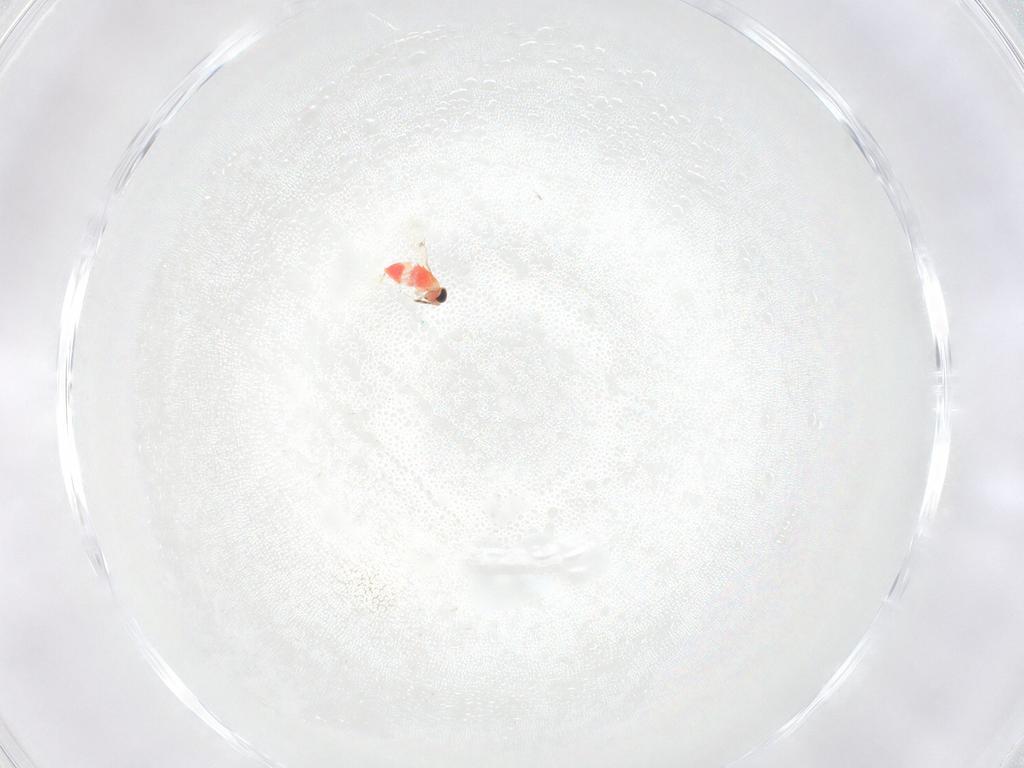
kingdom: Animalia
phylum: Arthropoda
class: Insecta
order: Hymenoptera
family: Trichogrammatidae
